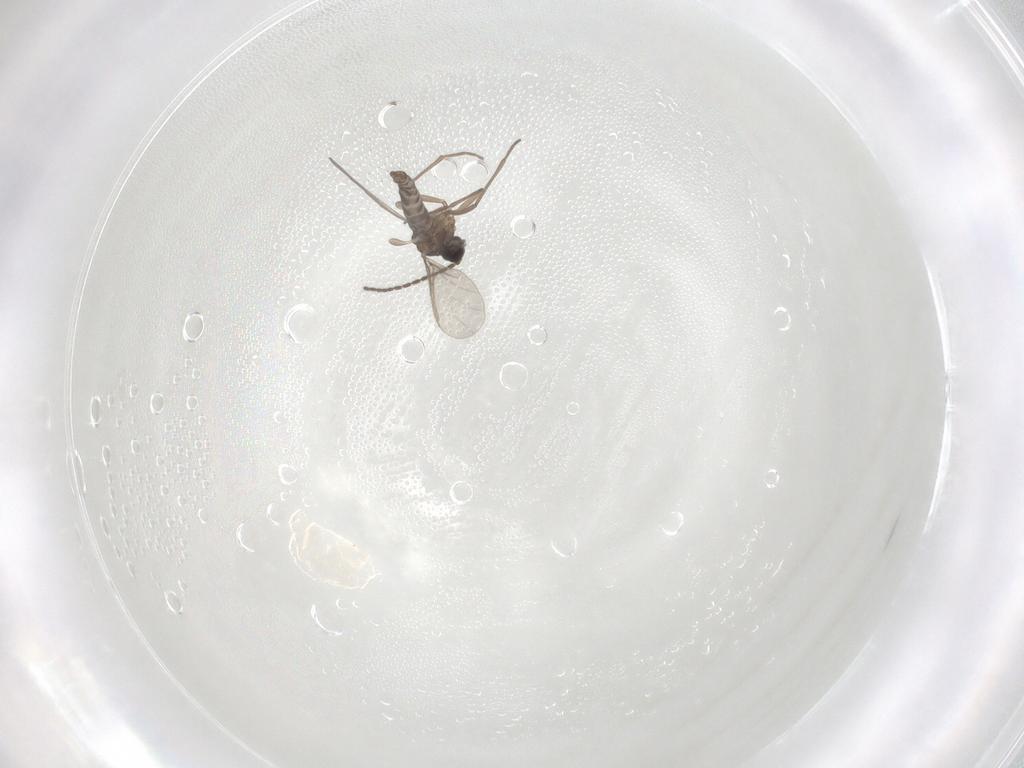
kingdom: Animalia
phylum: Arthropoda
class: Insecta
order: Diptera
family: Sciaridae
